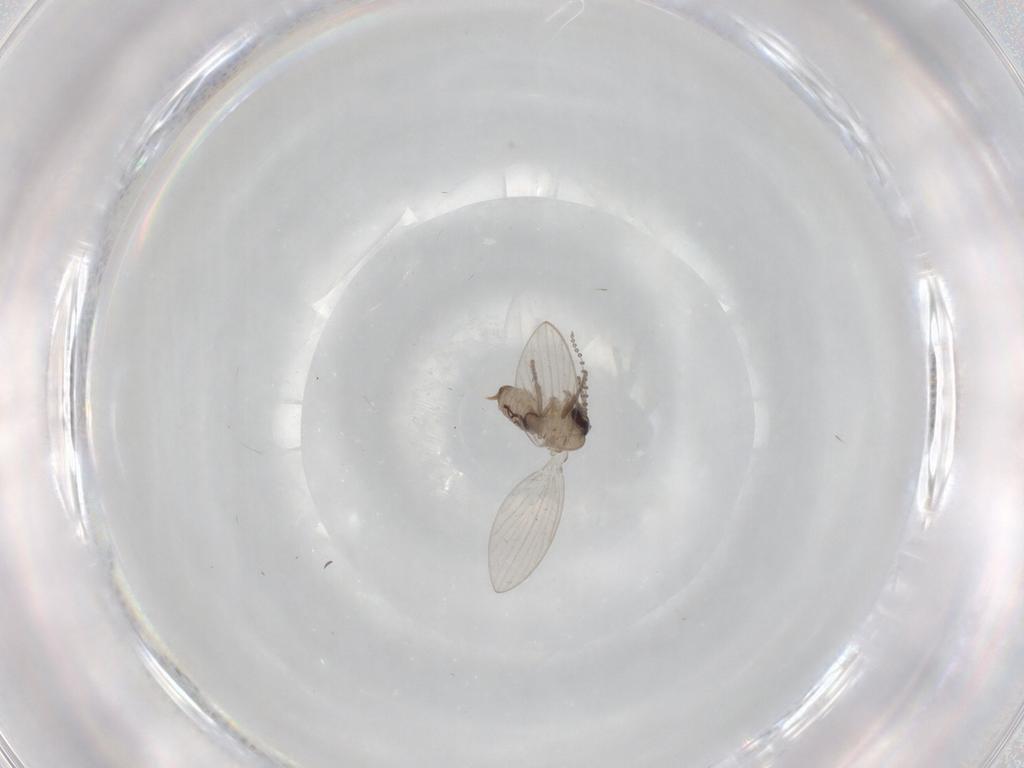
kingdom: Animalia
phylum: Arthropoda
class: Insecta
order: Diptera
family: Psychodidae
